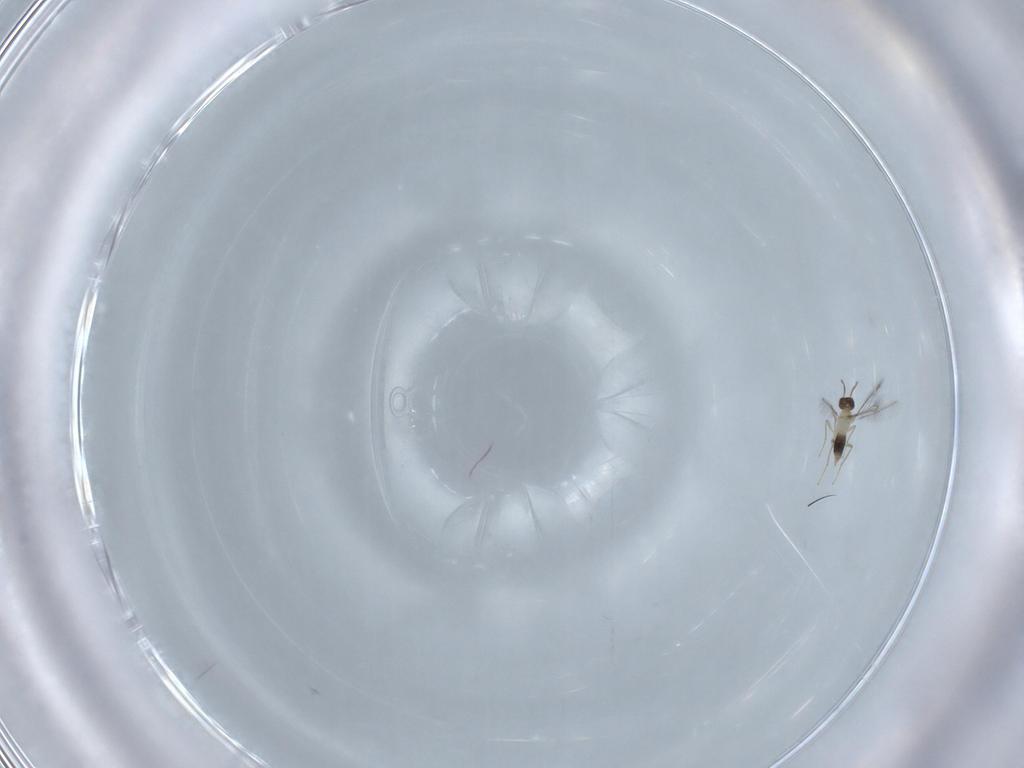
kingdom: Animalia
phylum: Arthropoda
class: Insecta
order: Hymenoptera
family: Mymaridae
